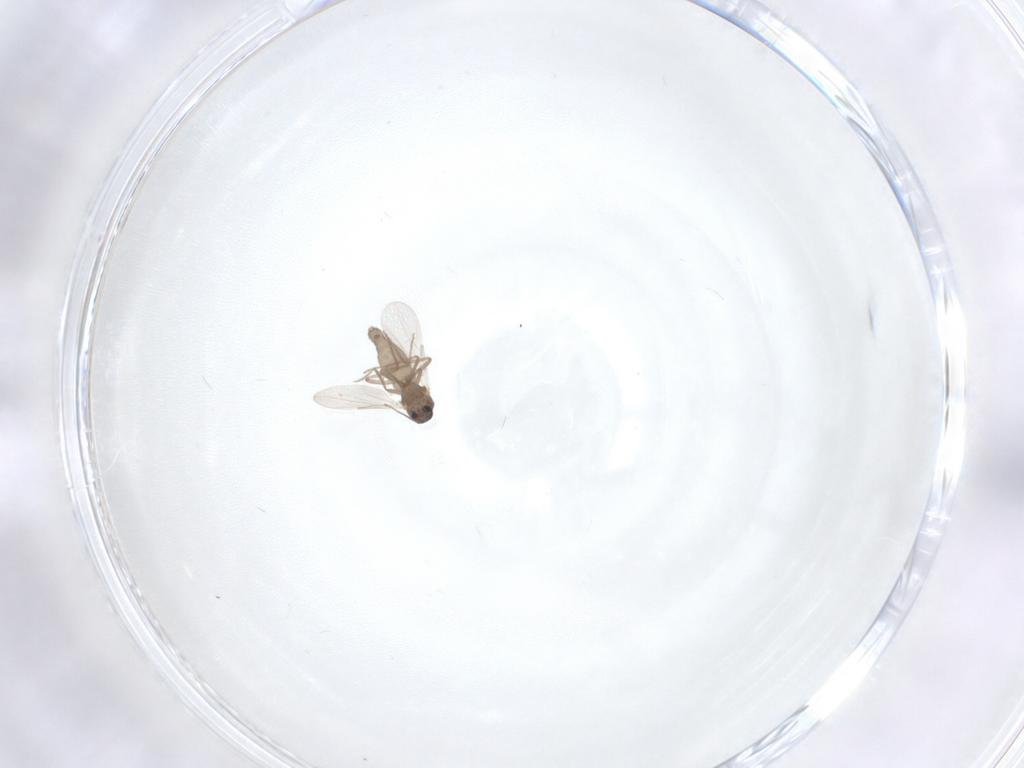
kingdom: Animalia
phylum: Arthropoda
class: Insecta
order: Diptera
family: Ceratopogonidae
